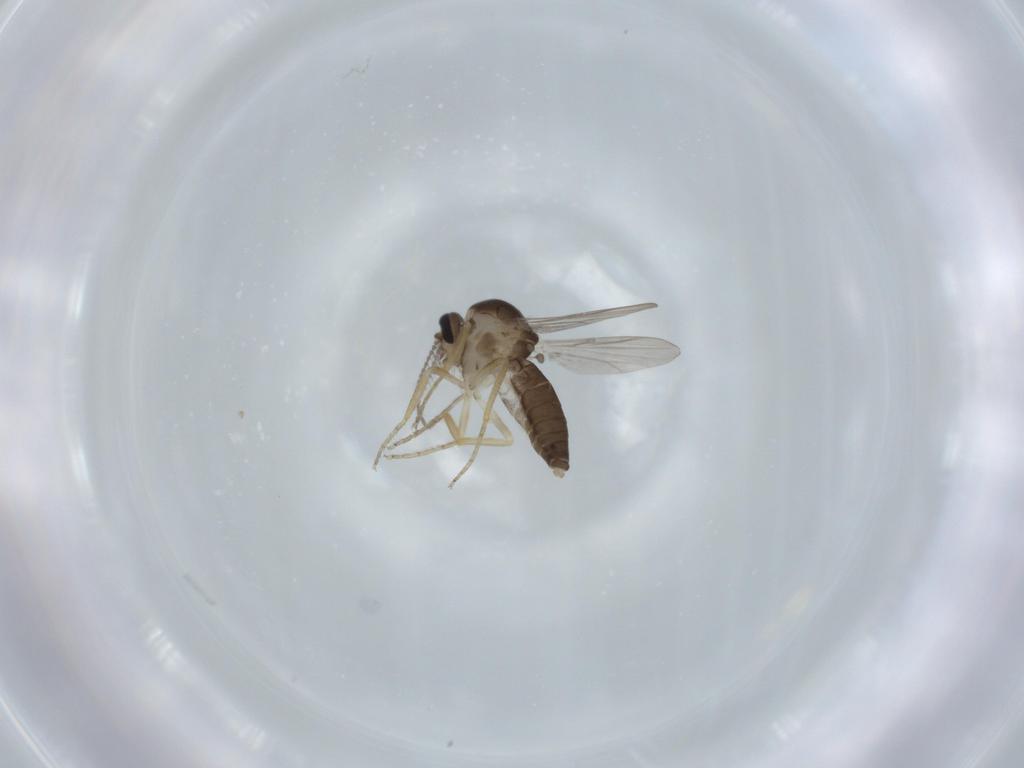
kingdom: Animalia
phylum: Arthropoda
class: Insecta
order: Diptera
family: Ceratopogonidae
